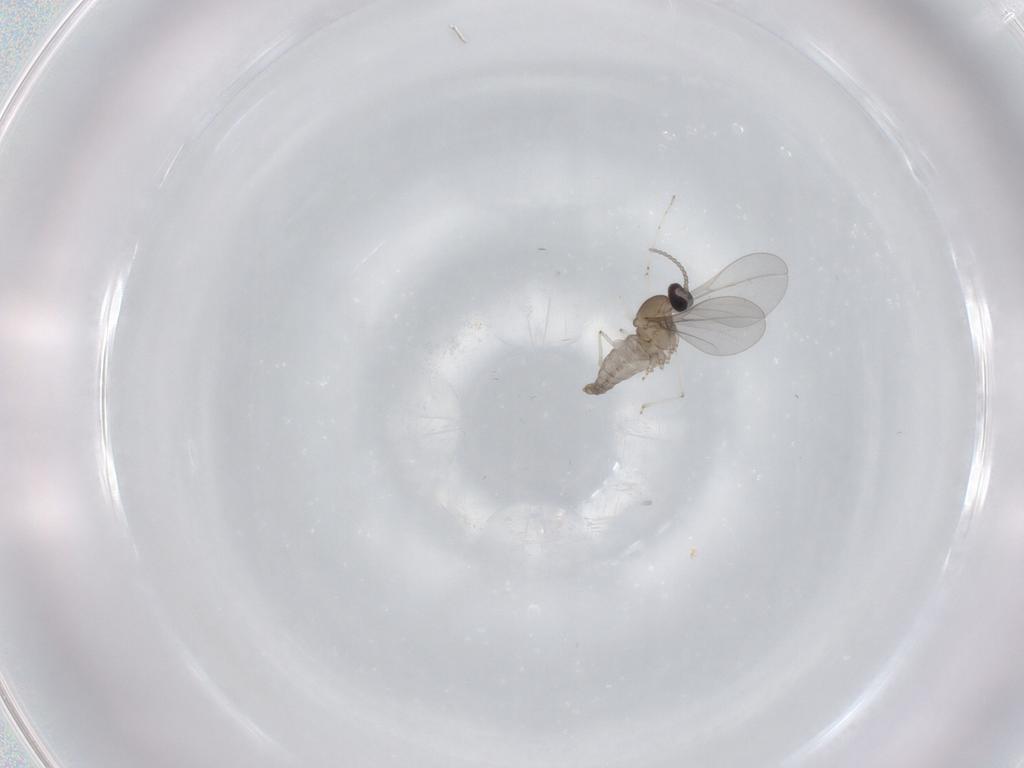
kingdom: Animalia
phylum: Arthropoda
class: Insecta
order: Diptera
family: Cecidomyiidae
